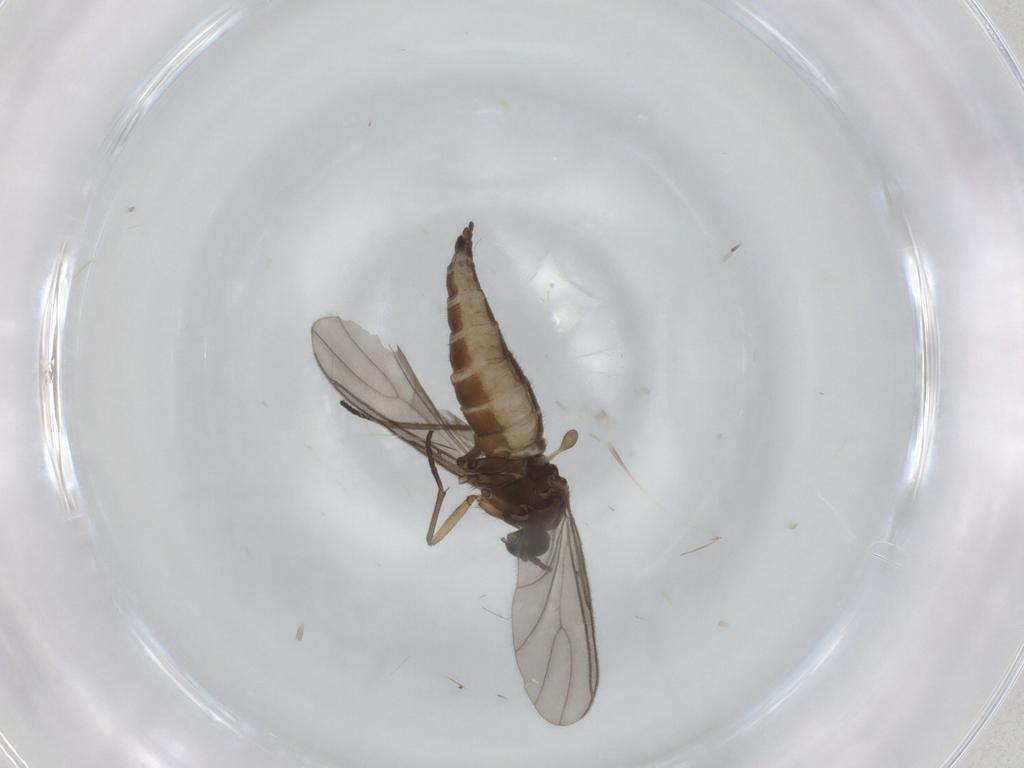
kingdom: Animalia
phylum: Arthropoda
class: Insecta
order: Diptera
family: Sciaridae
